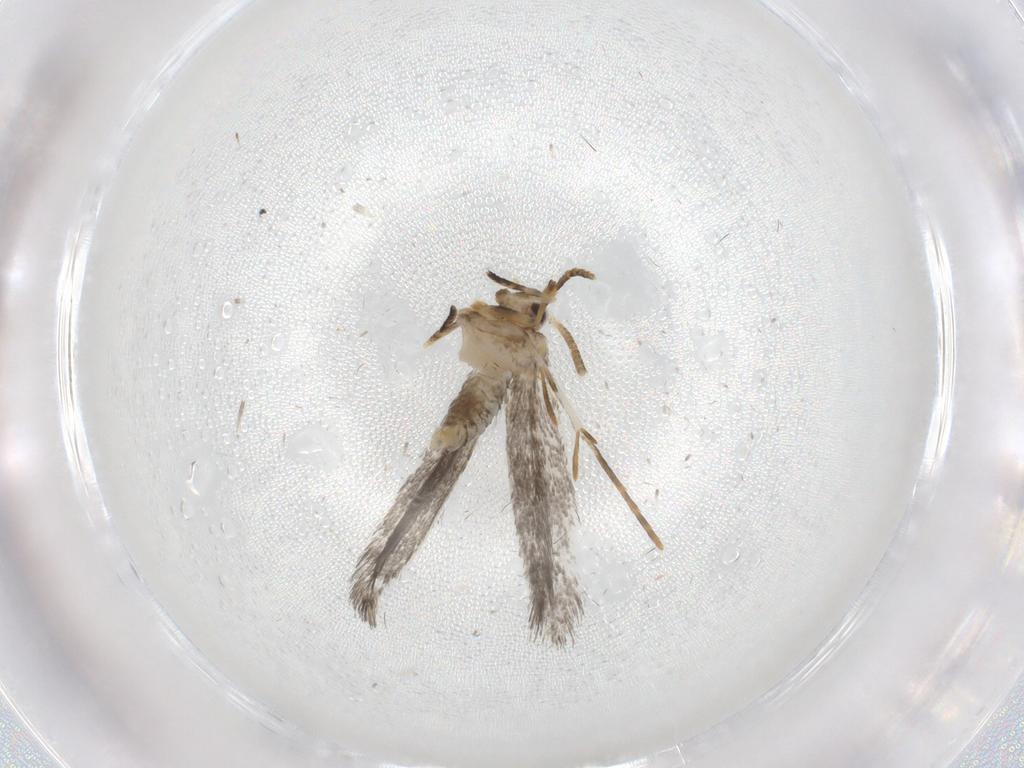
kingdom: Animalia
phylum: Arthropoda
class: Insecta
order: Lepidoptera
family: Tineidae
